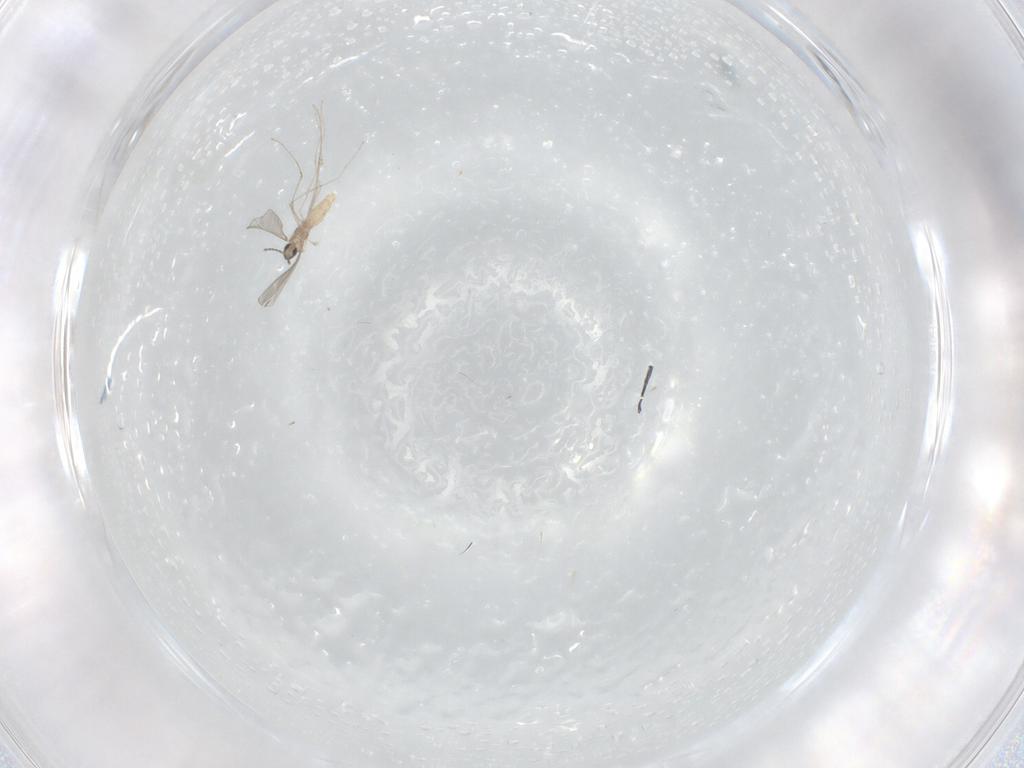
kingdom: Animalia
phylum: Arthropoda
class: Insecta
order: Diptera
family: Cecidomyiidae
